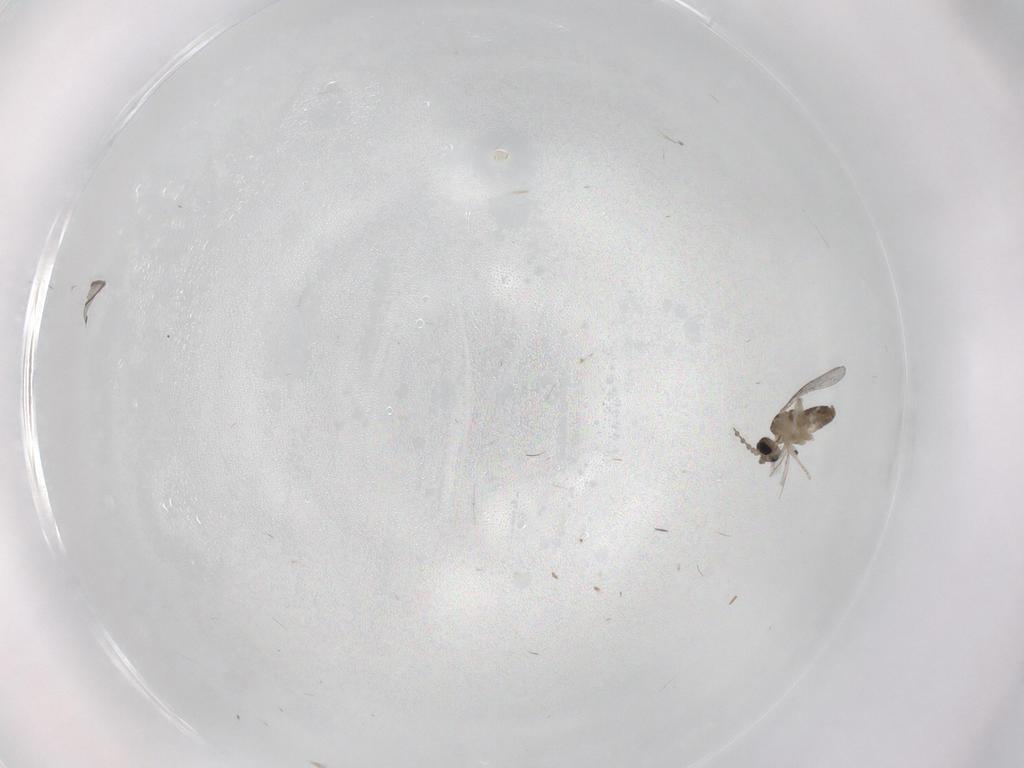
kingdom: Animalia
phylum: Arthropoda
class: Insecta
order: Diptera
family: Cecidomyiidae
